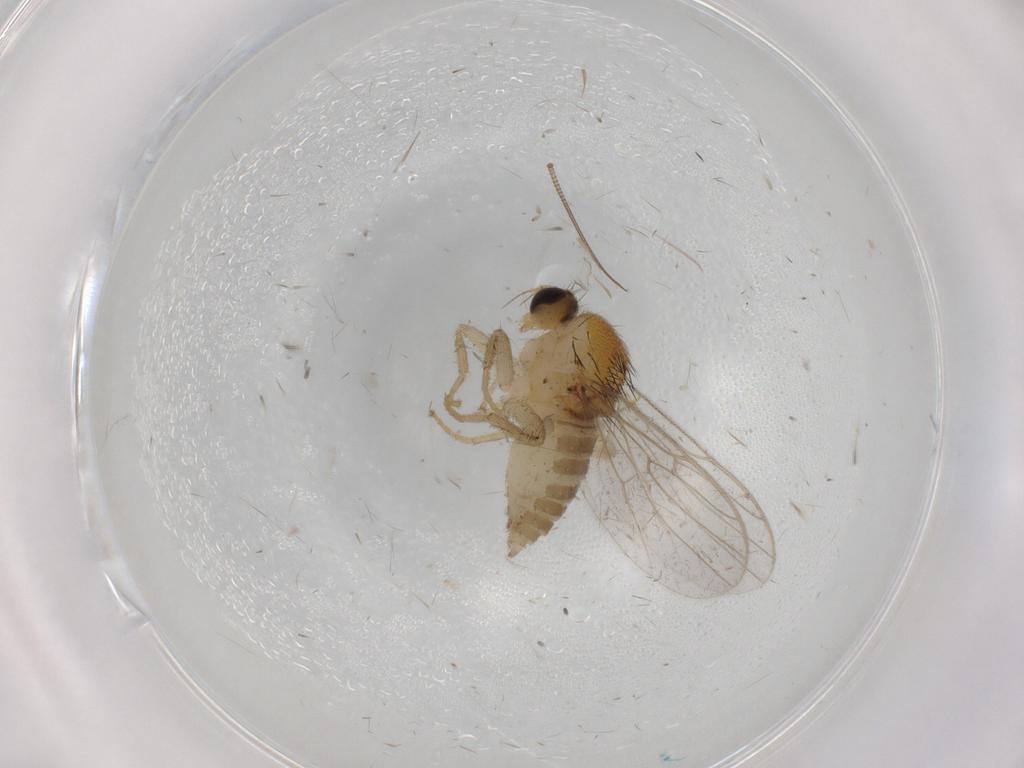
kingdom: Animalia
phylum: Arthropoda
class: Insecta
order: Diptera
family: Hybotidae
